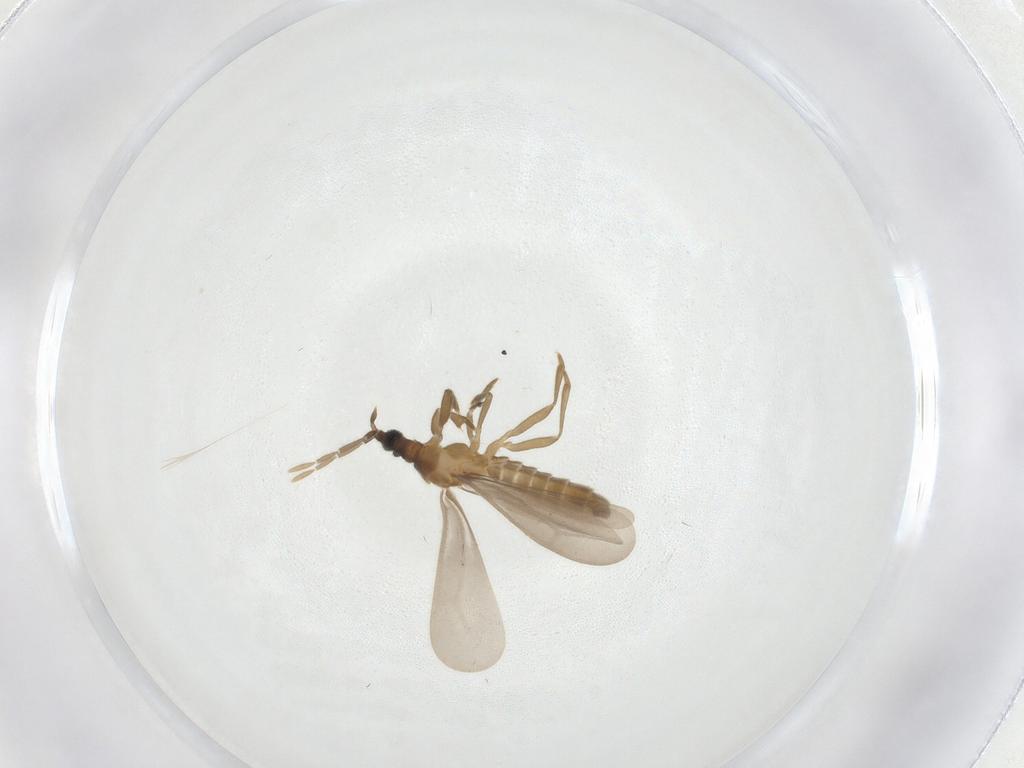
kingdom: Animalia
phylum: Arthropoda
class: Insecta
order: Hemiptera
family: Enicocephalidae
